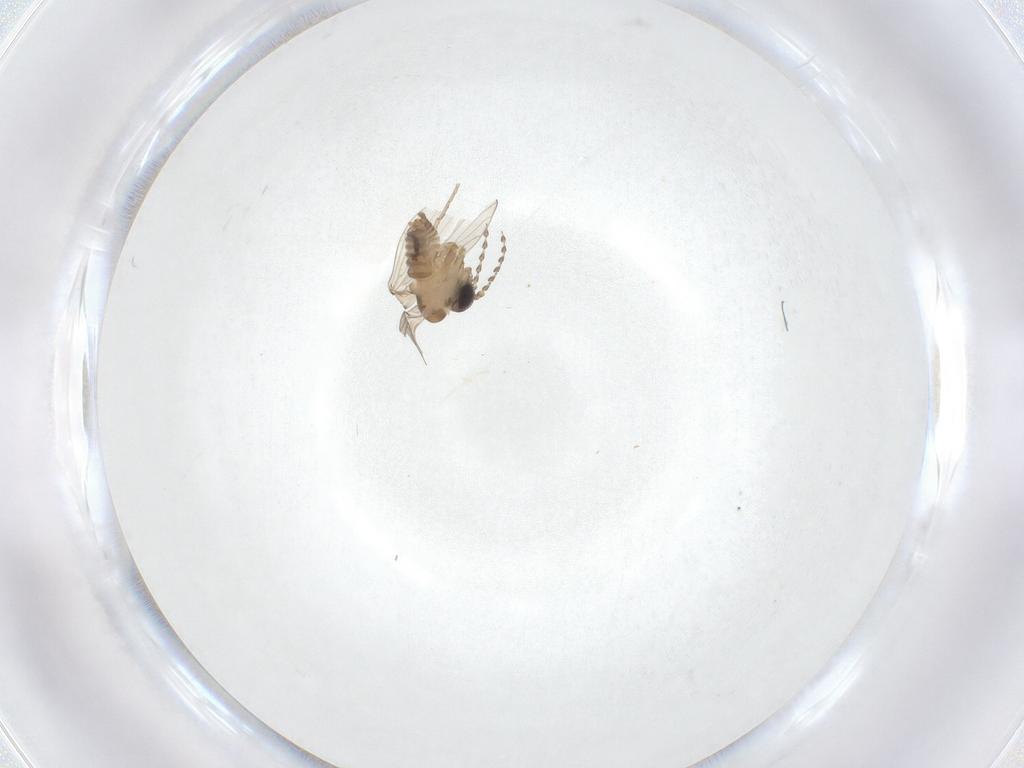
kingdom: Animalia
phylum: Arthropoda
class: Insecta
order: Diptera
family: Psychodidae
